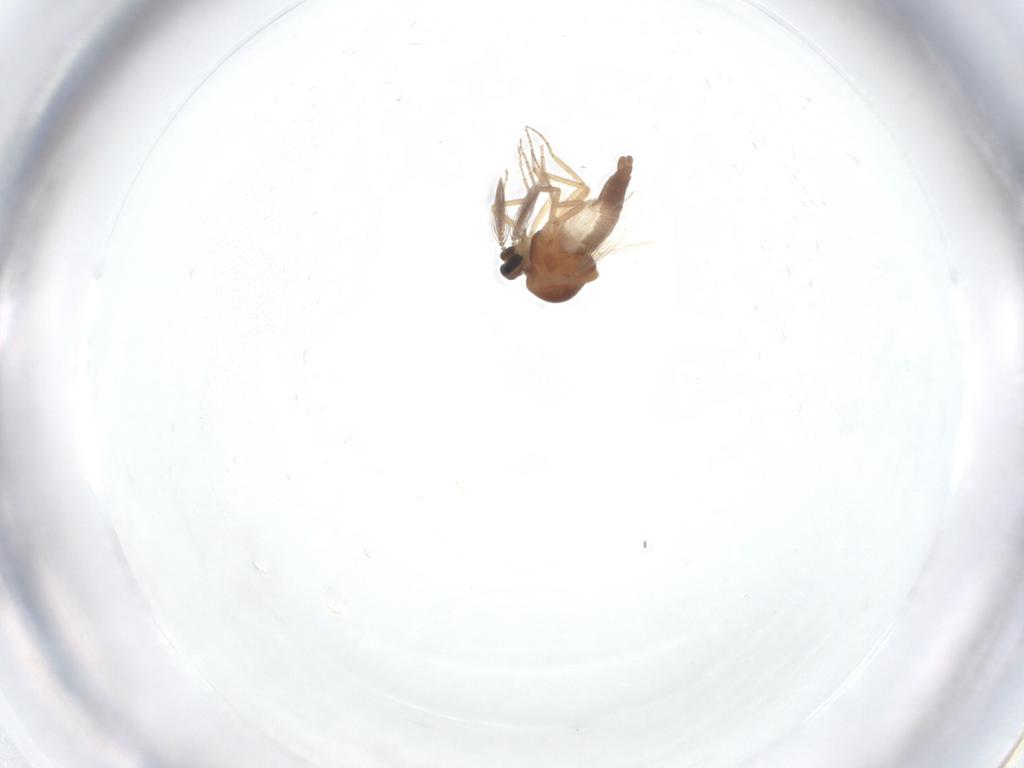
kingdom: Animalia
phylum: Arthropoda
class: Insecta
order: Diptera
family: Ceratopogonidae
